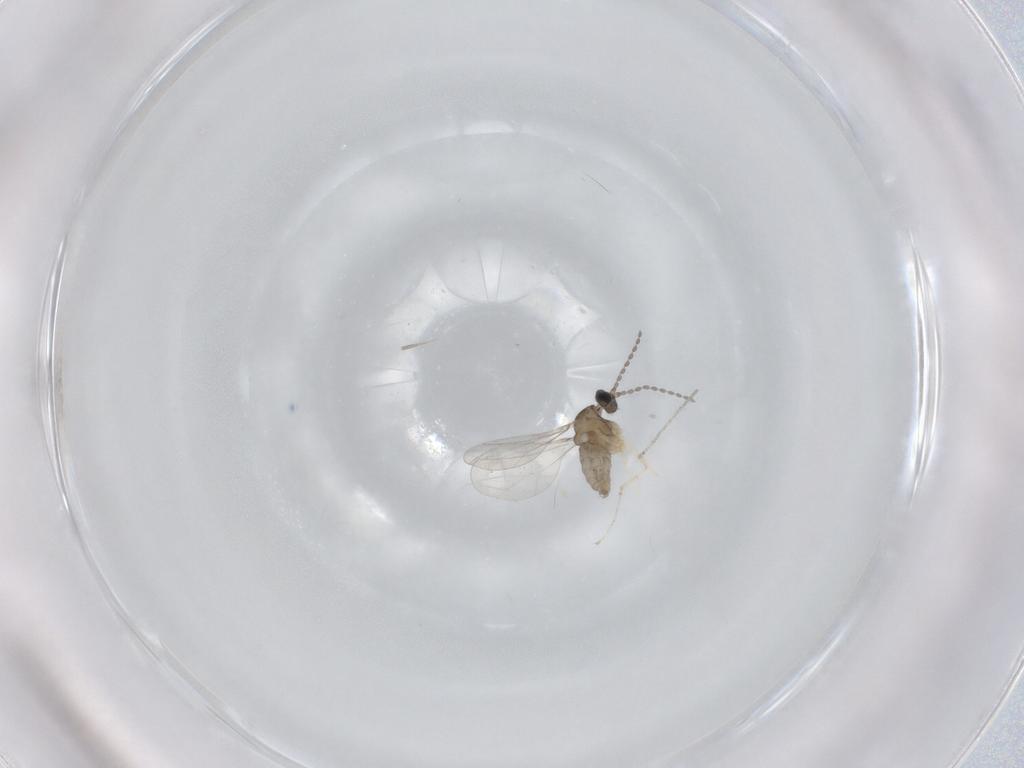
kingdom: Animalia
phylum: Arthropoda
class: Insecta
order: Diptera
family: Cecidomyiidae
